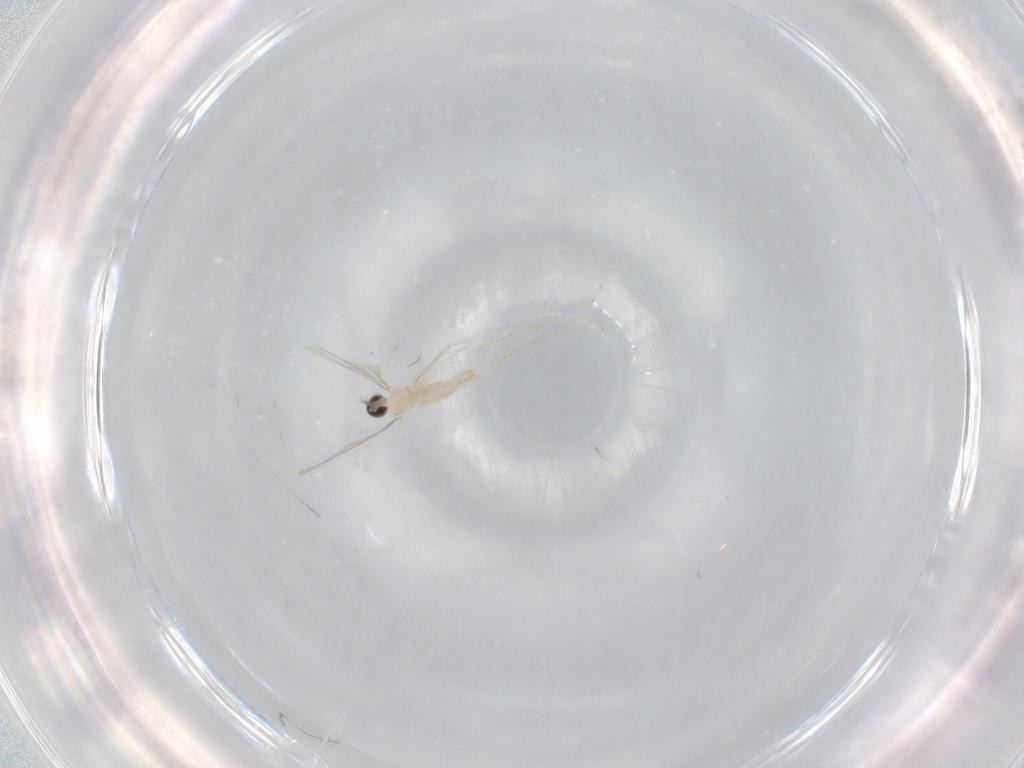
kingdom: Animalia
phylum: Arthropoda
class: Insecta
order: Diptera
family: Cecidomyiidae
